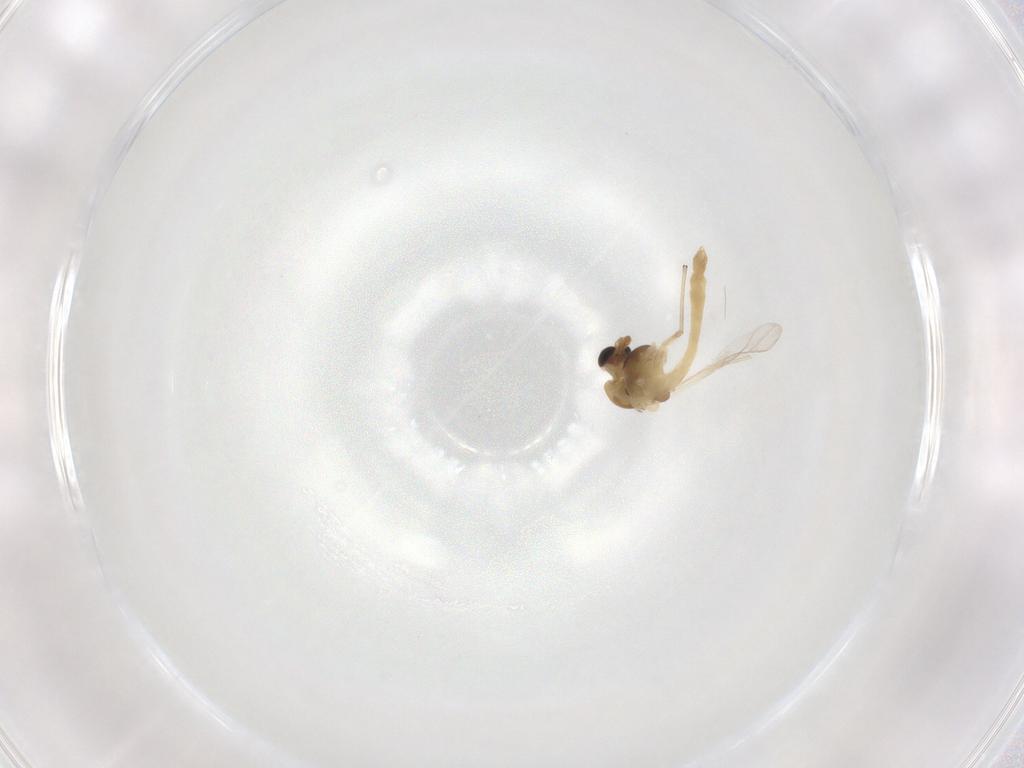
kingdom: Animalia
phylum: Arthropoda
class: Insecta
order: Diptera
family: Chironomidae
